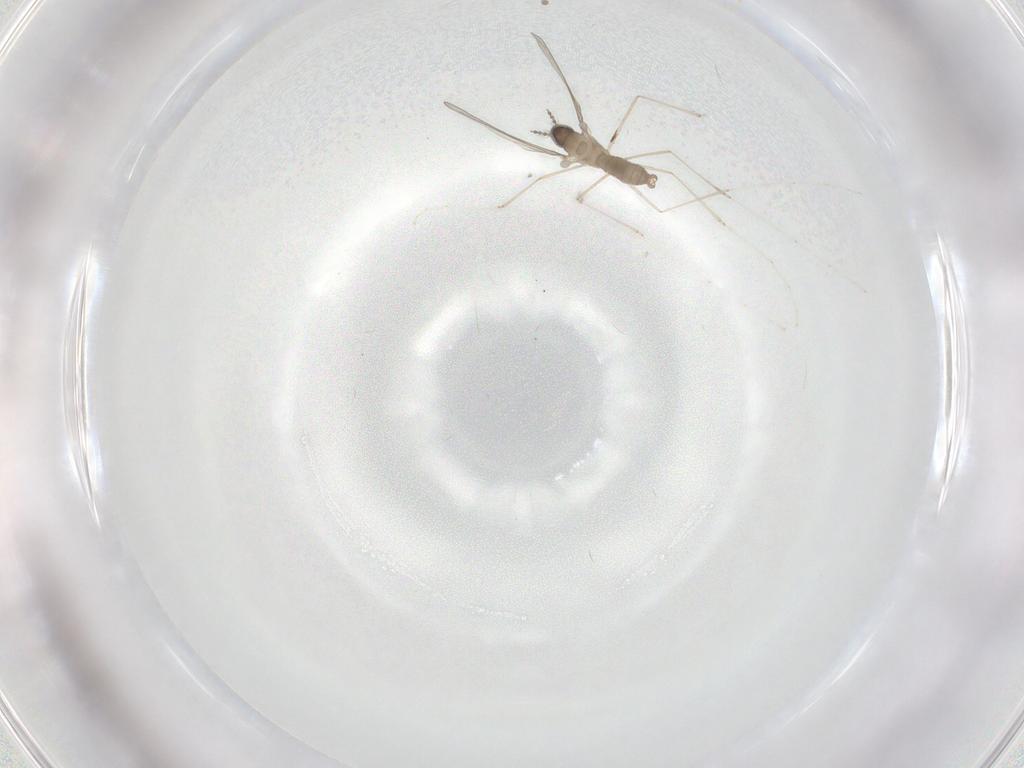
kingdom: Animalia
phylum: Arthropoda
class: Insecta
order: Diptera
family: Cecidomyiidae
